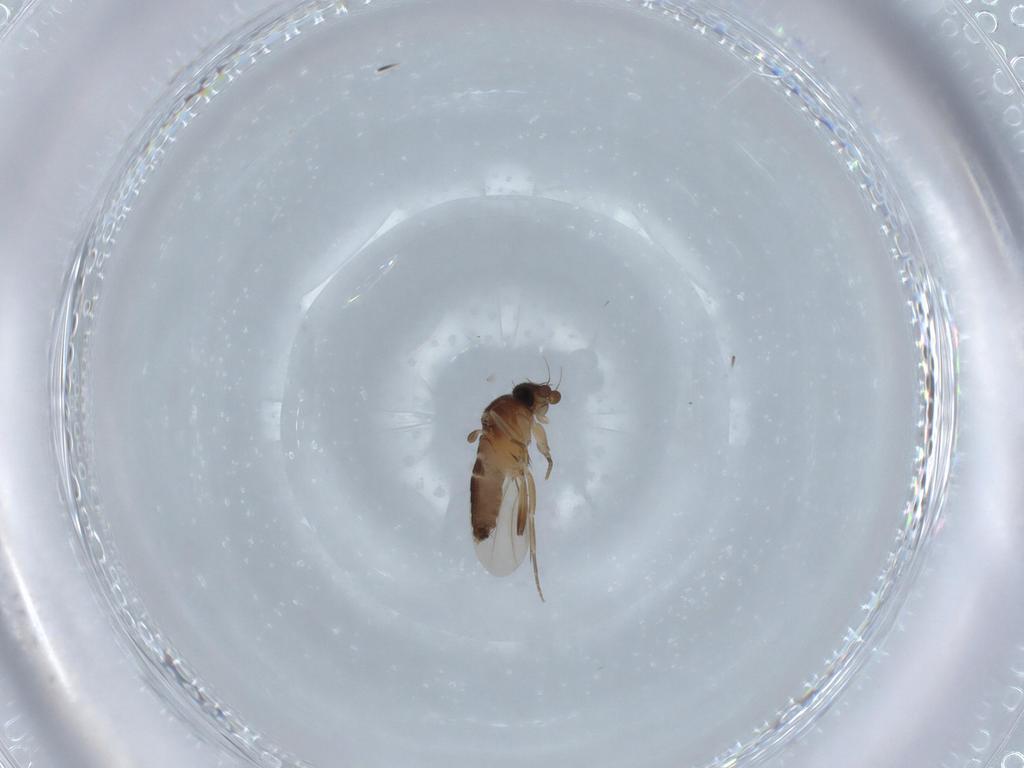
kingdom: Animalia
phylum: Arthropoda
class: Insecta
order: Diptera
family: Phoridae
